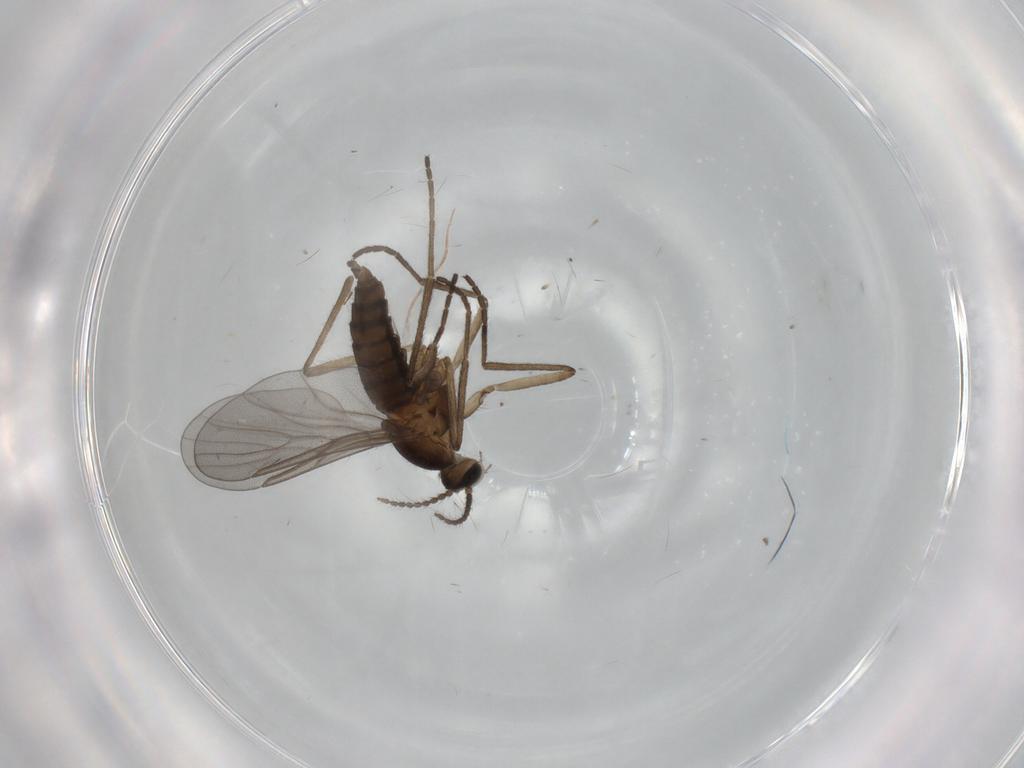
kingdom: Animalia
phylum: Arthropoda
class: Insecta
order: Diptera
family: Cecidomyiidae
